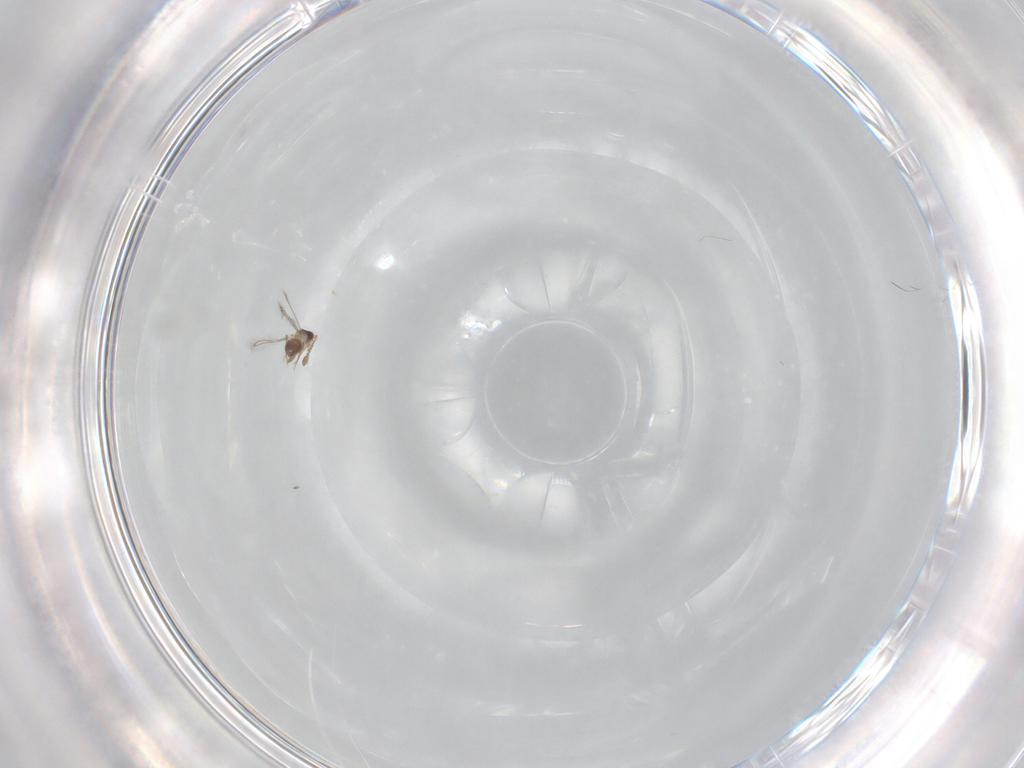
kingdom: Animalia
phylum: Arthropoda
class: Insecta
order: Hymenoptera
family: Mymaridae
